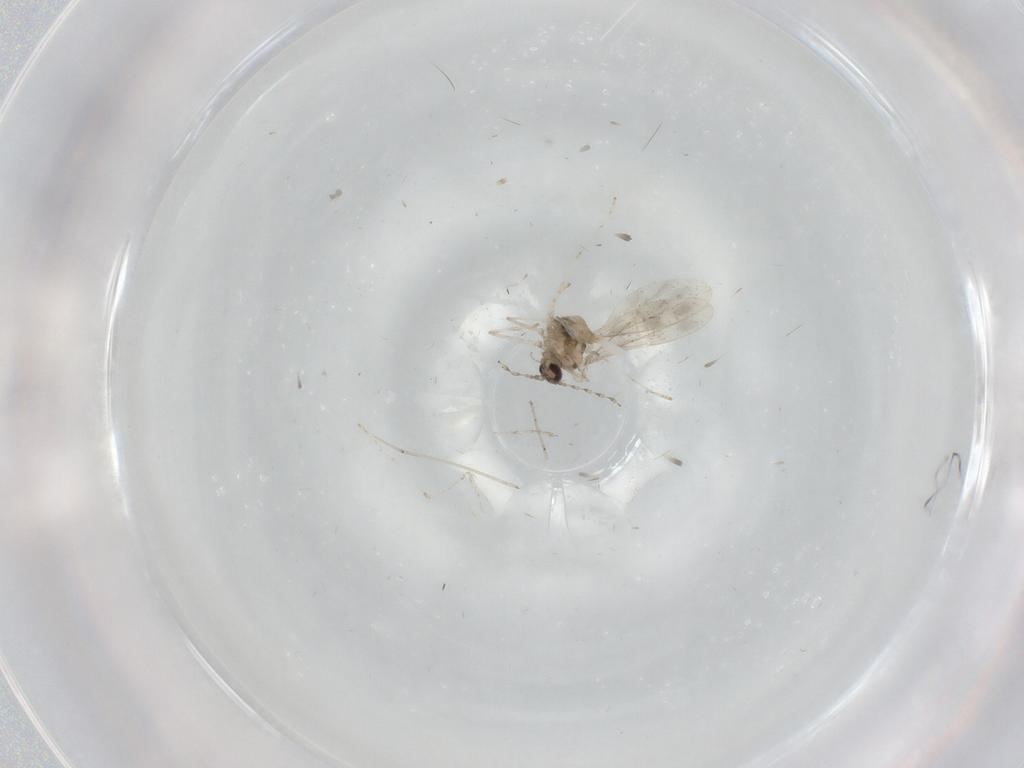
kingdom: Animalia
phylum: Arthropoda
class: Insecta
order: Diptera
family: Cecidomyiidae
